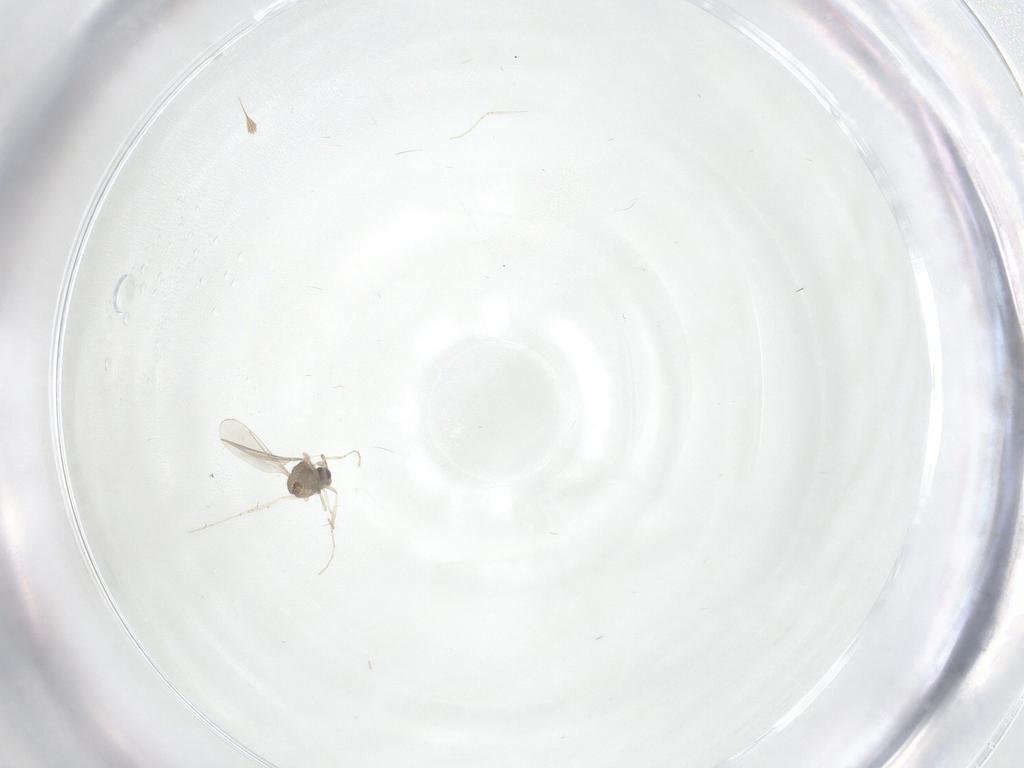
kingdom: Animalia
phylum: Arthropoda
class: Insecta
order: Diptera
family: Cecidomyiidae
